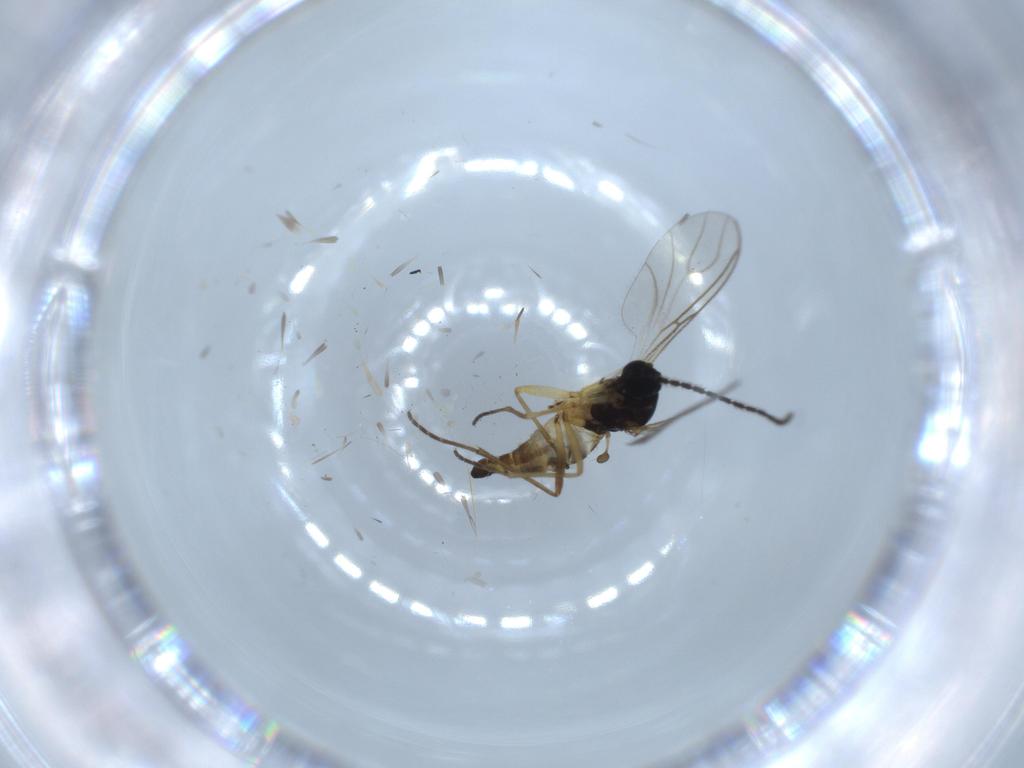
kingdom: Animalia
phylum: Arthropoda
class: Insecta
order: Diptera
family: Sciaridae
